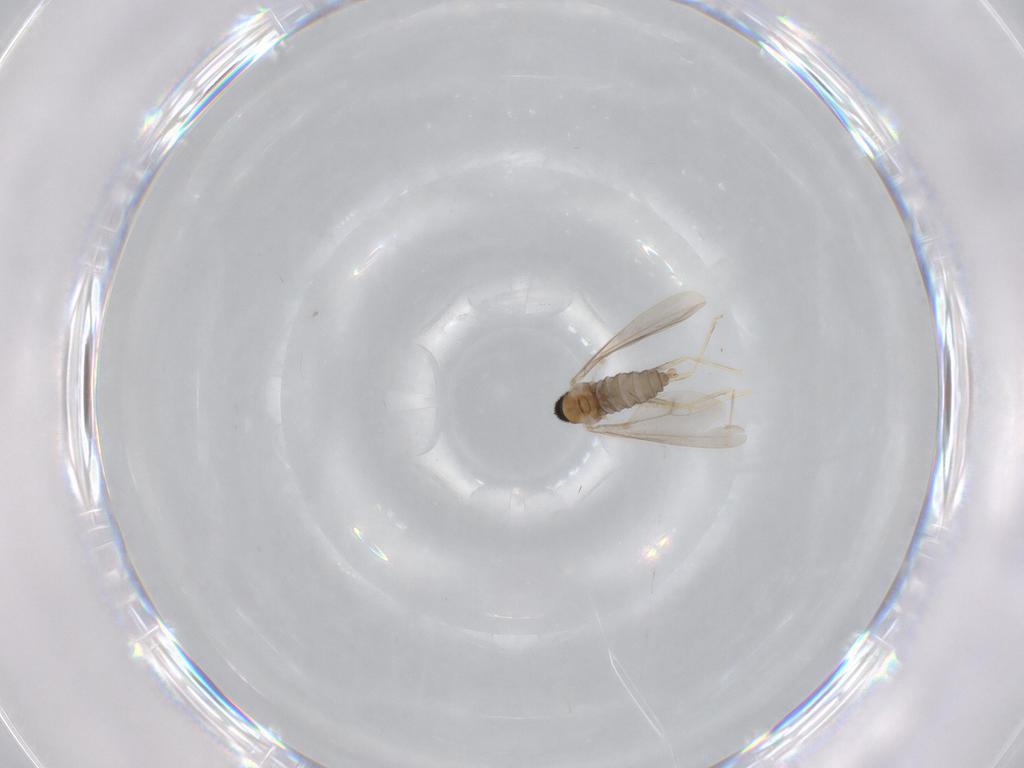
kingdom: Animalia
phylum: Arthropoda
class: Insecta
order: Diptera
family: Cecidomyiidae
